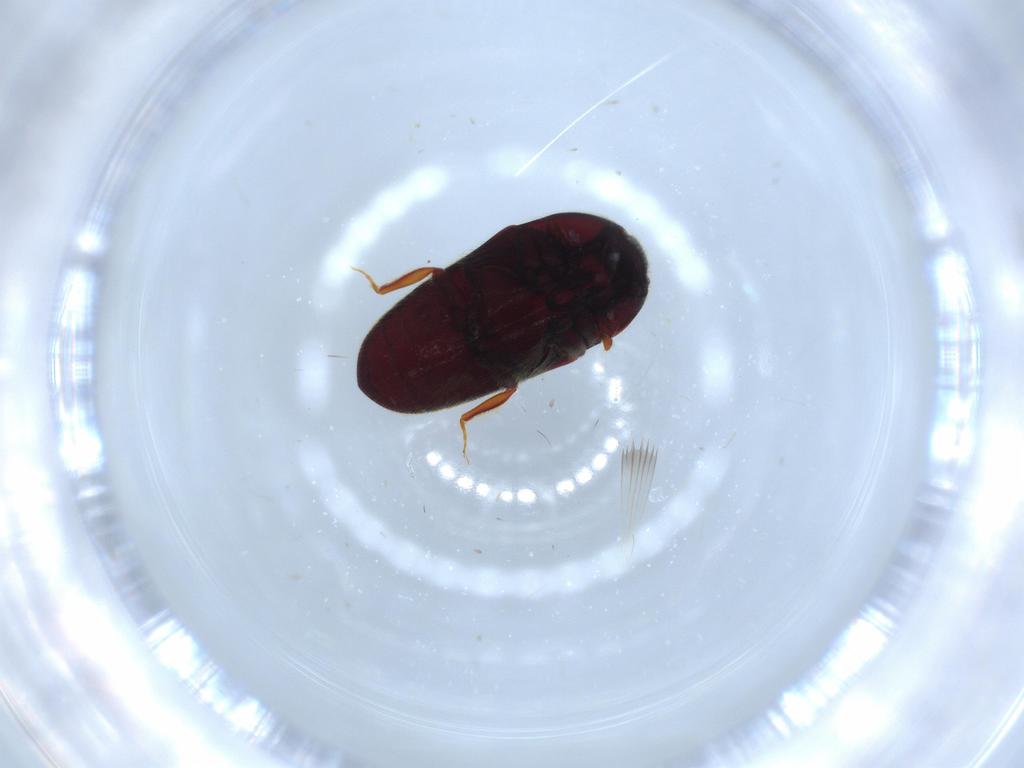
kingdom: Animalia
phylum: Arthropoda
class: Insecta
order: Coleoptera
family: Throscidae
